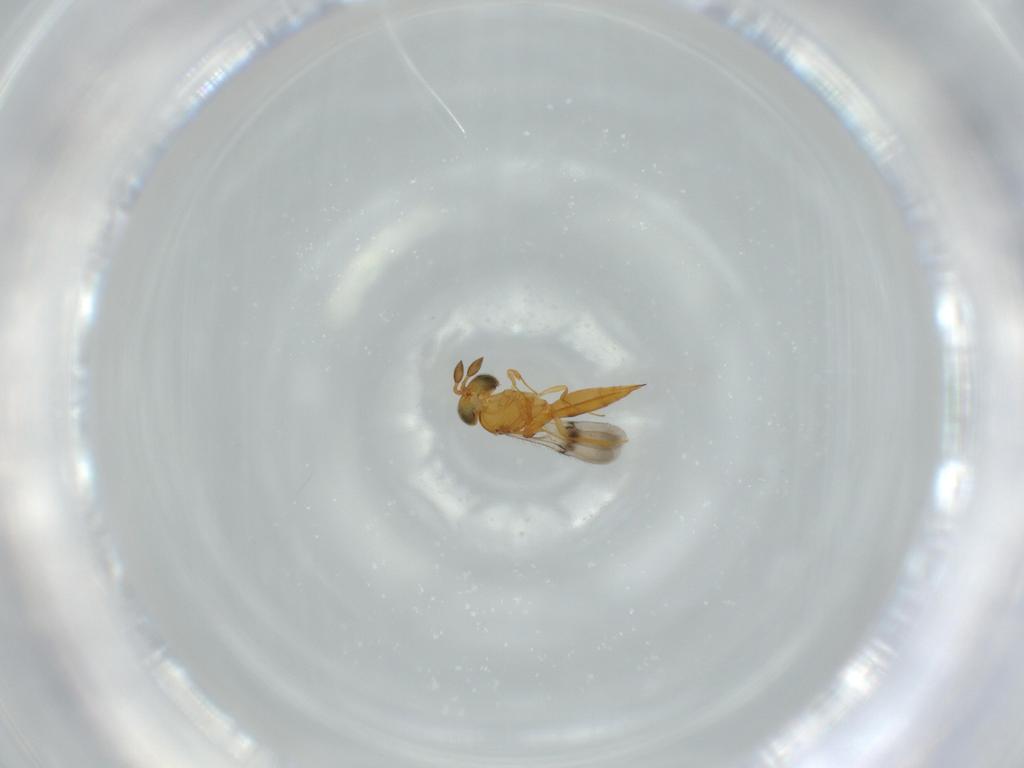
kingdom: Animalia
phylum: Arthropoda
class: Insecta
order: Hymenoptera
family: Scelionidae
